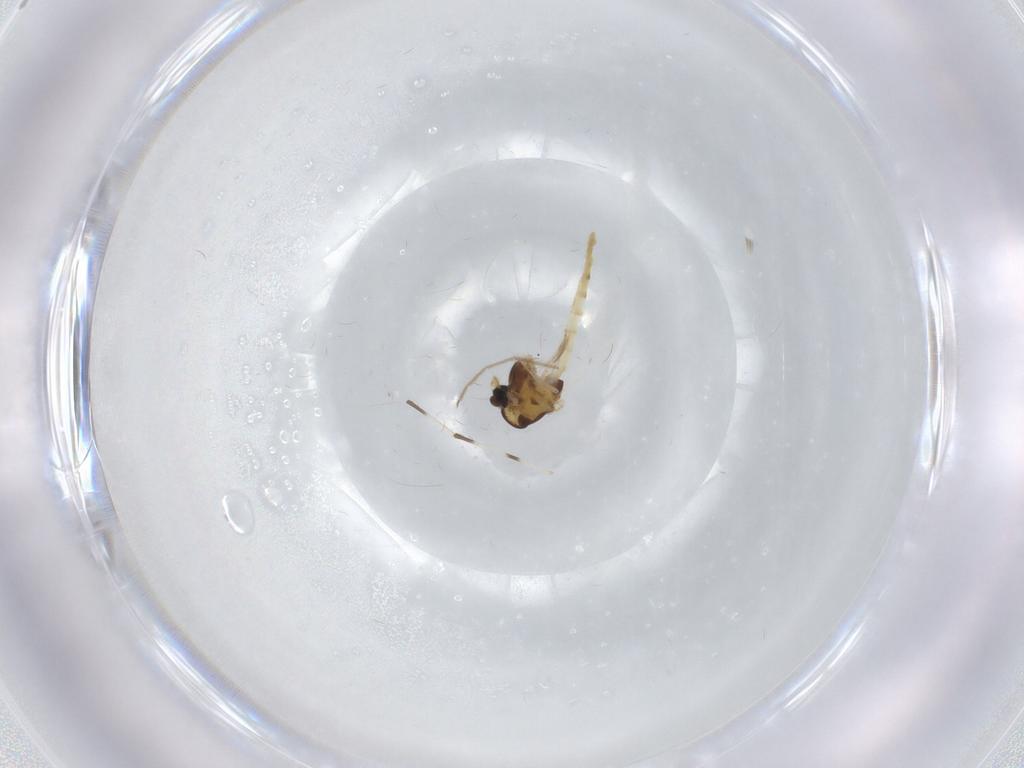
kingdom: Animalia
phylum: Arthropoda
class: Insecta
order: Diptera
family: Chironomidae
